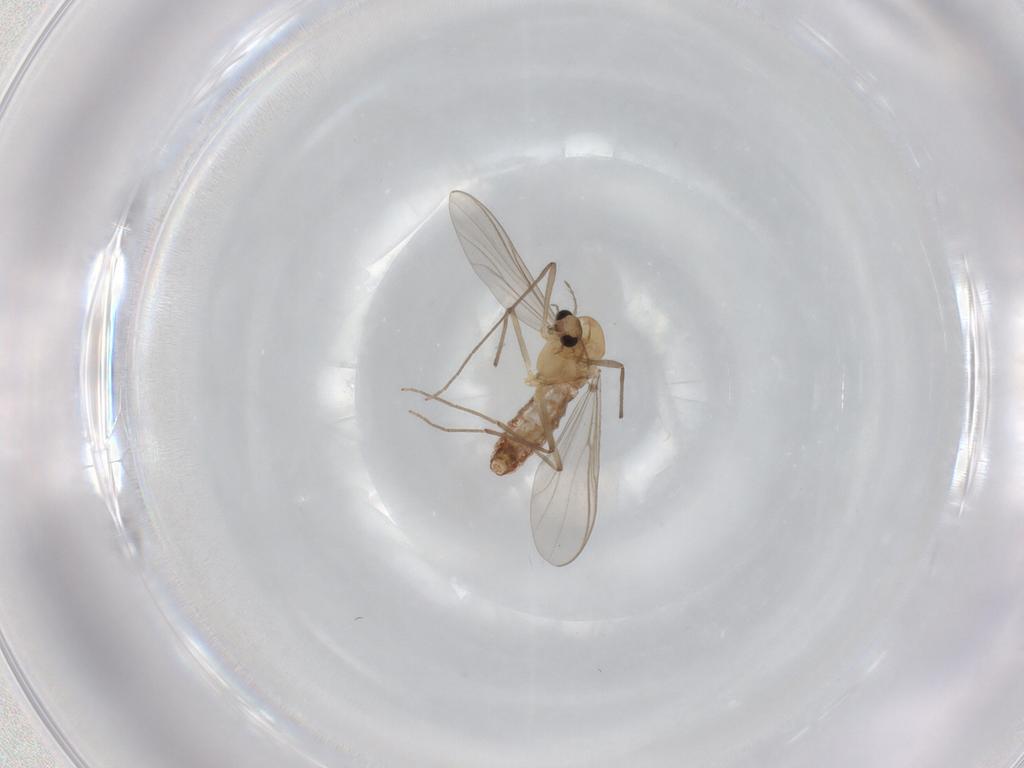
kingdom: Animalia
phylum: Arthropoda
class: Insecta
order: Diptera
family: Chironomidae
